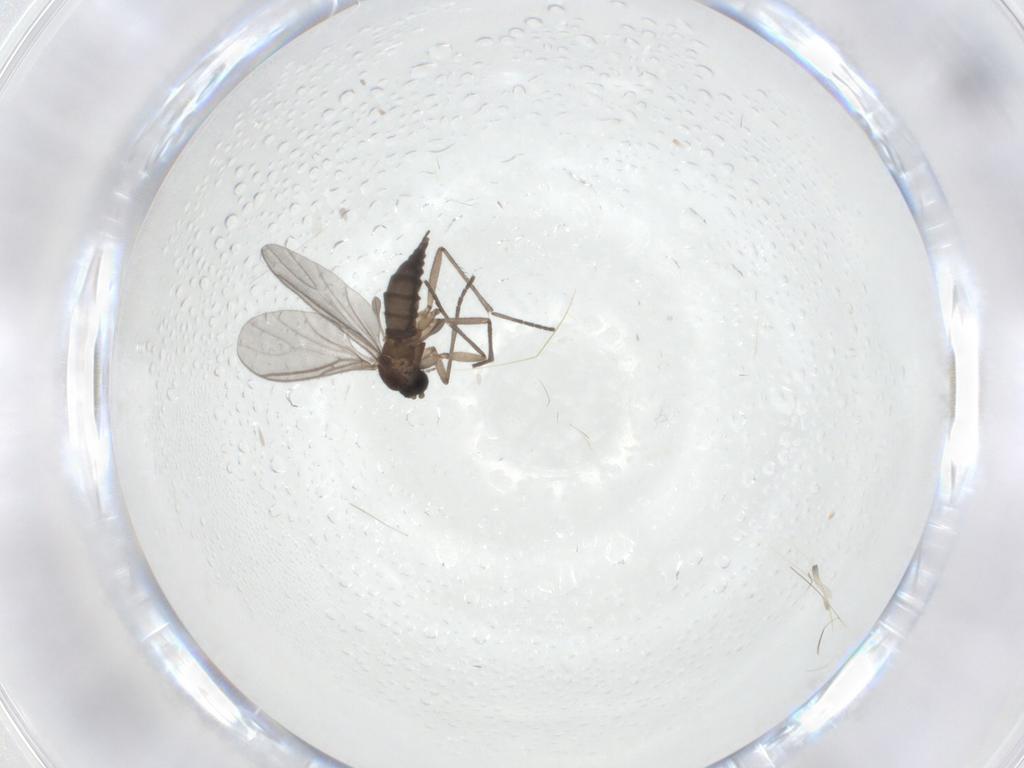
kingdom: Animalia
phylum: Arthropoda
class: Insecta
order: Diptera
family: Sciaridae
